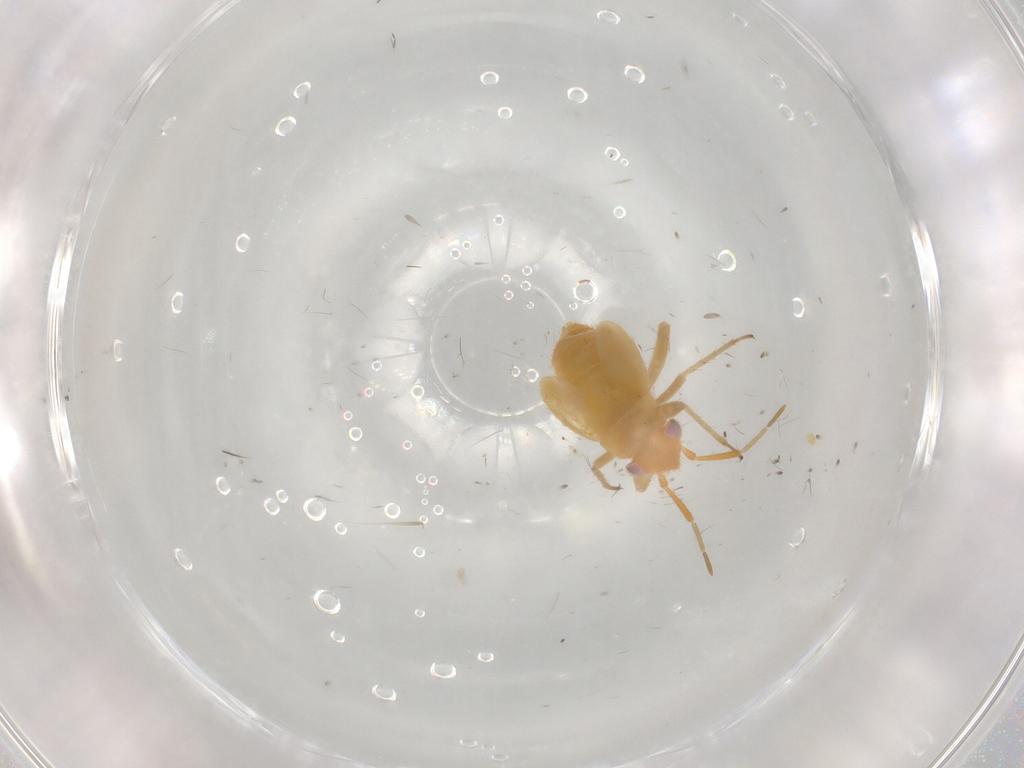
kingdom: Animalia
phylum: Arthropoda
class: Insecta
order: Hemiptera
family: Miridae
